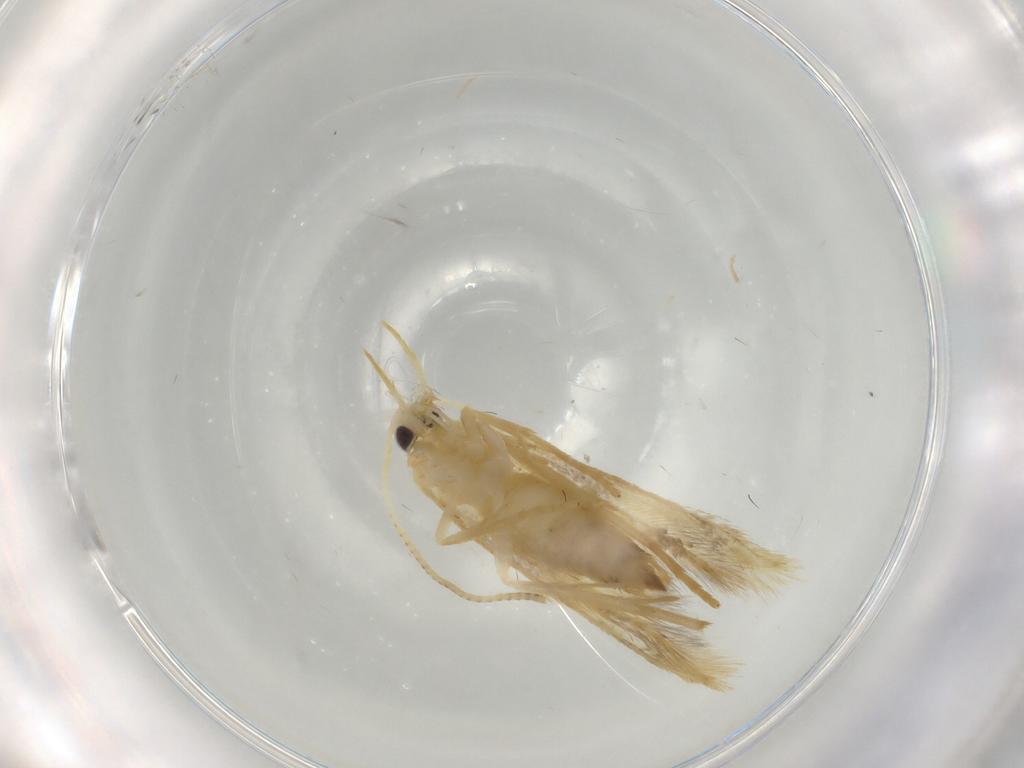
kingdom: Animalia
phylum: Arthropoda
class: Insecta
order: Lepidoptera
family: Oecophoridae
